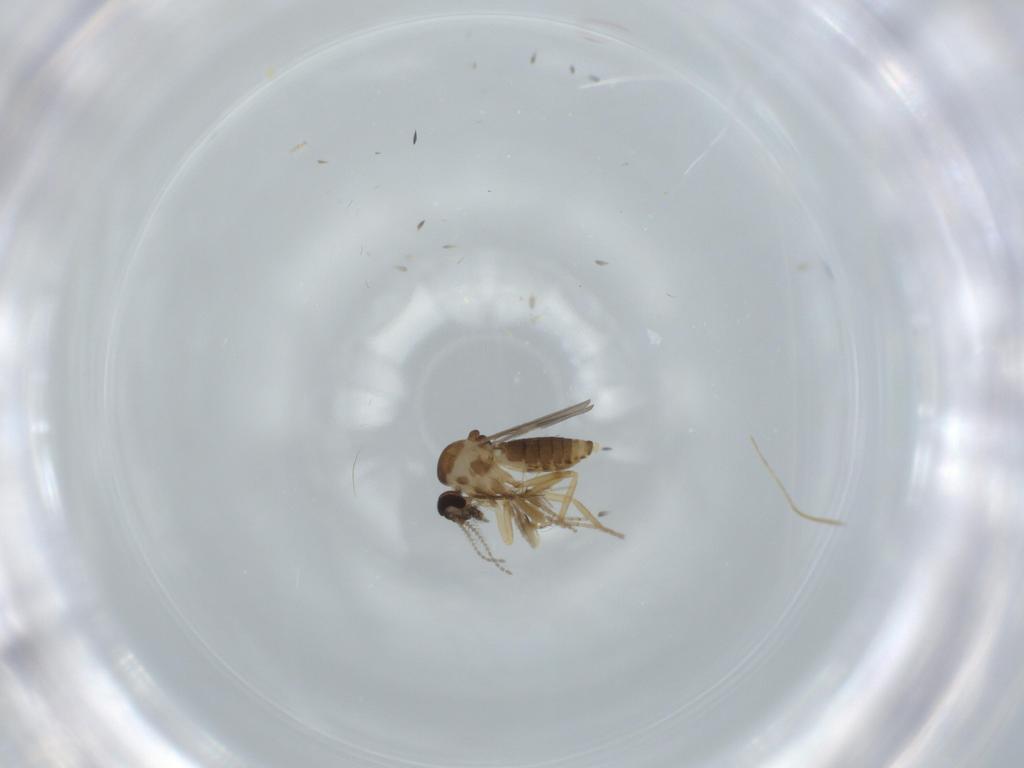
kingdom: Animalia
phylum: Arthropoda
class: Insecta
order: Diptera
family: Ceratopogonidae
